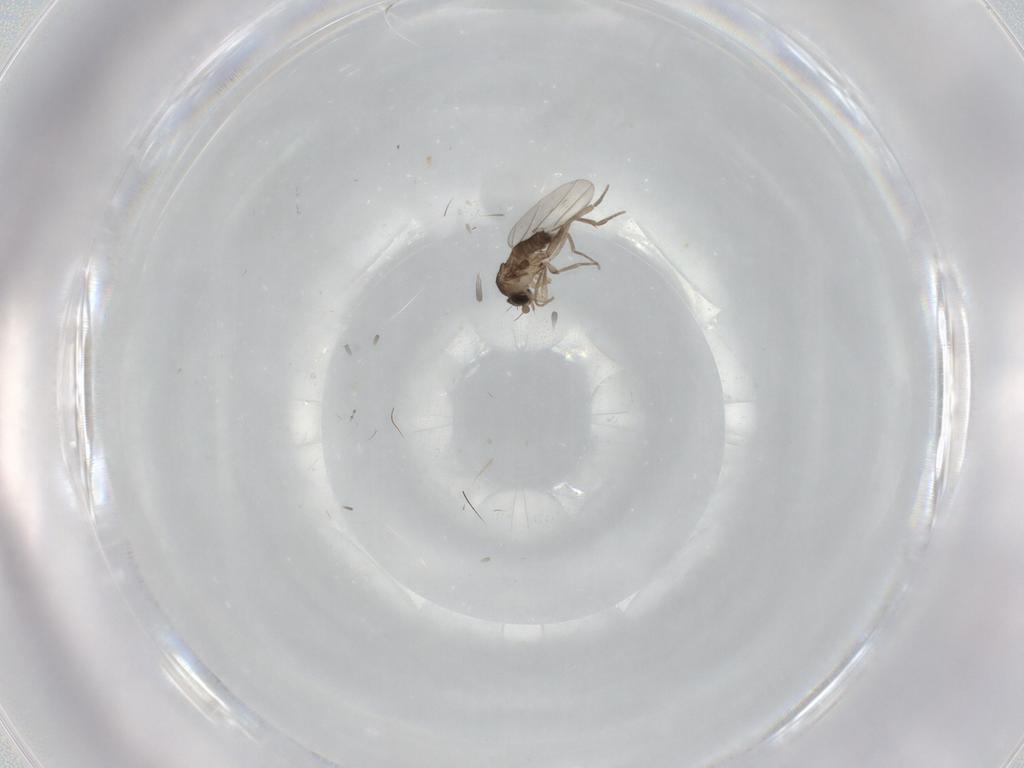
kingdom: Animalia
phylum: Arthropoda
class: Insecta
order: Diptera
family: Phoridae
